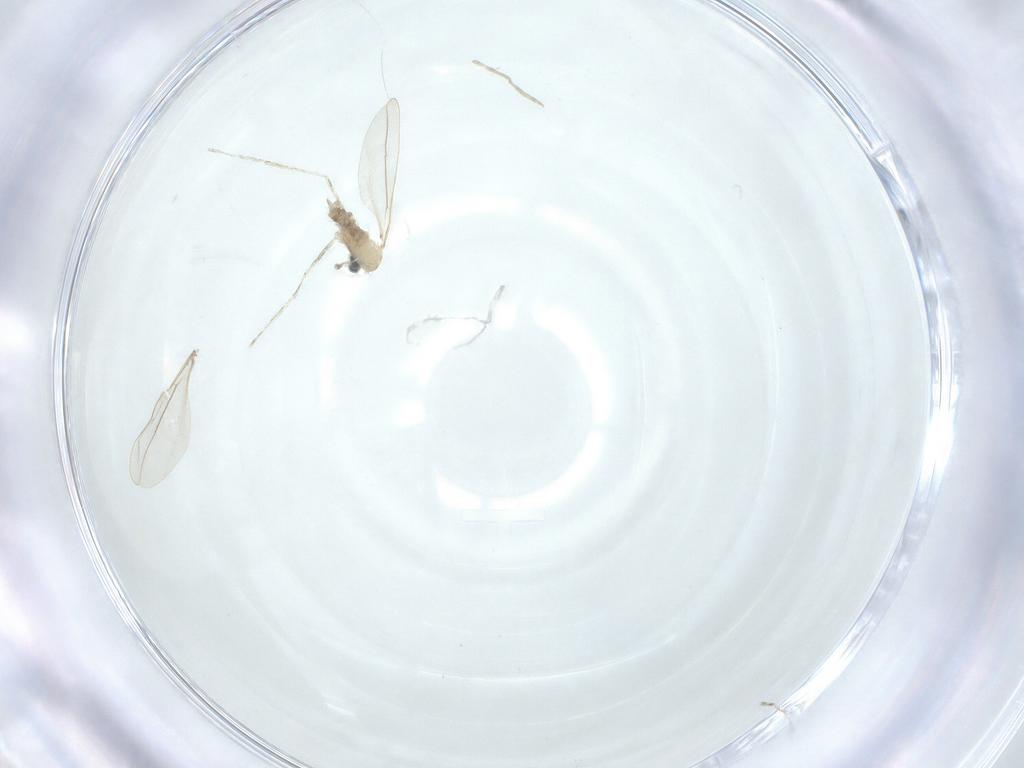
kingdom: Animalia
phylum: Arthropoda
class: Insecta
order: Diptera
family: Cecidomyiidae
